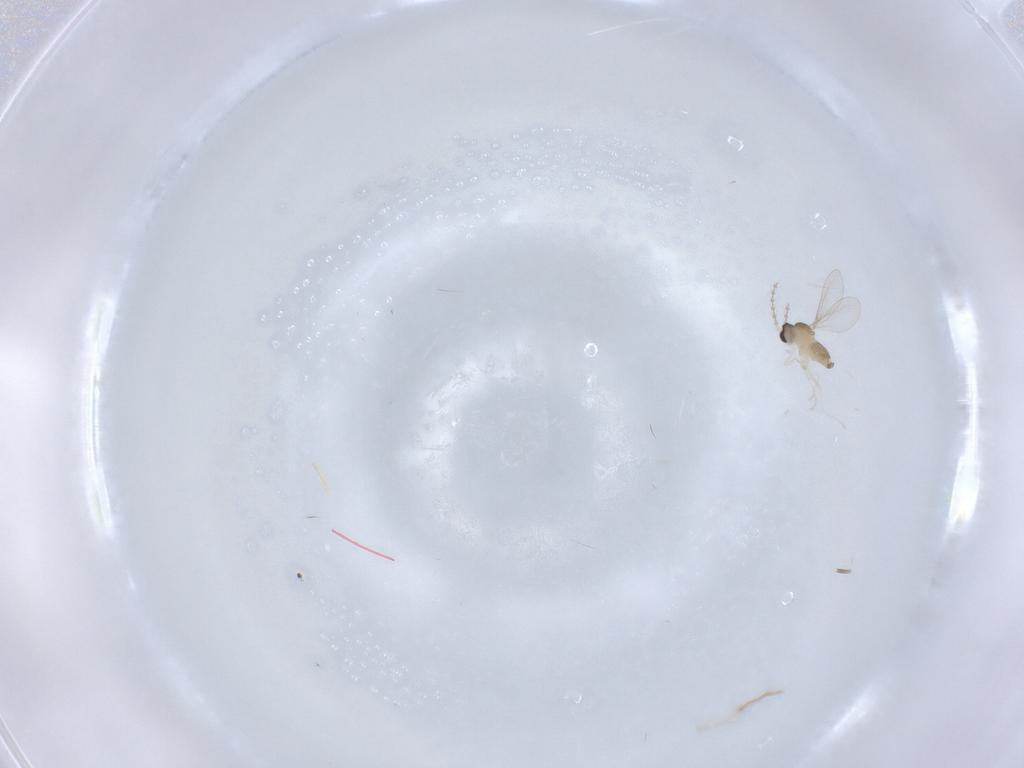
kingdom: Animalia
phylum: Arthropoda
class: Insecta
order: Diptera
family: Cecidomyiidae
